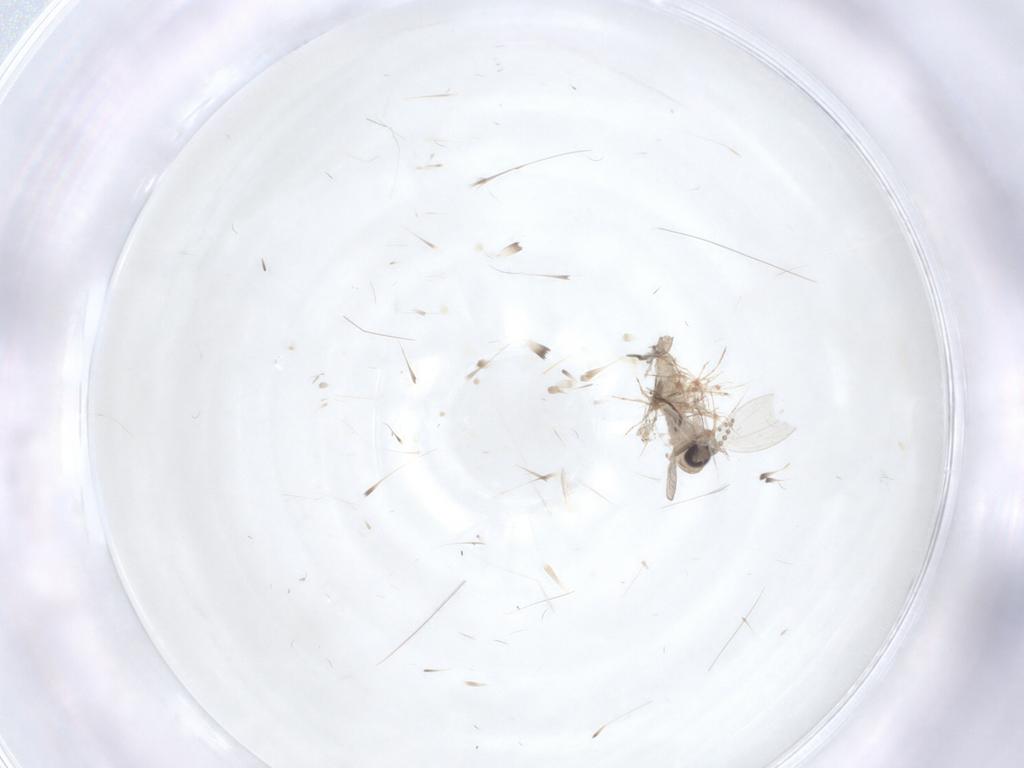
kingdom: Animalia
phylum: Arthropoda
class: Insecta
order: Diptera
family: Psychodidae
